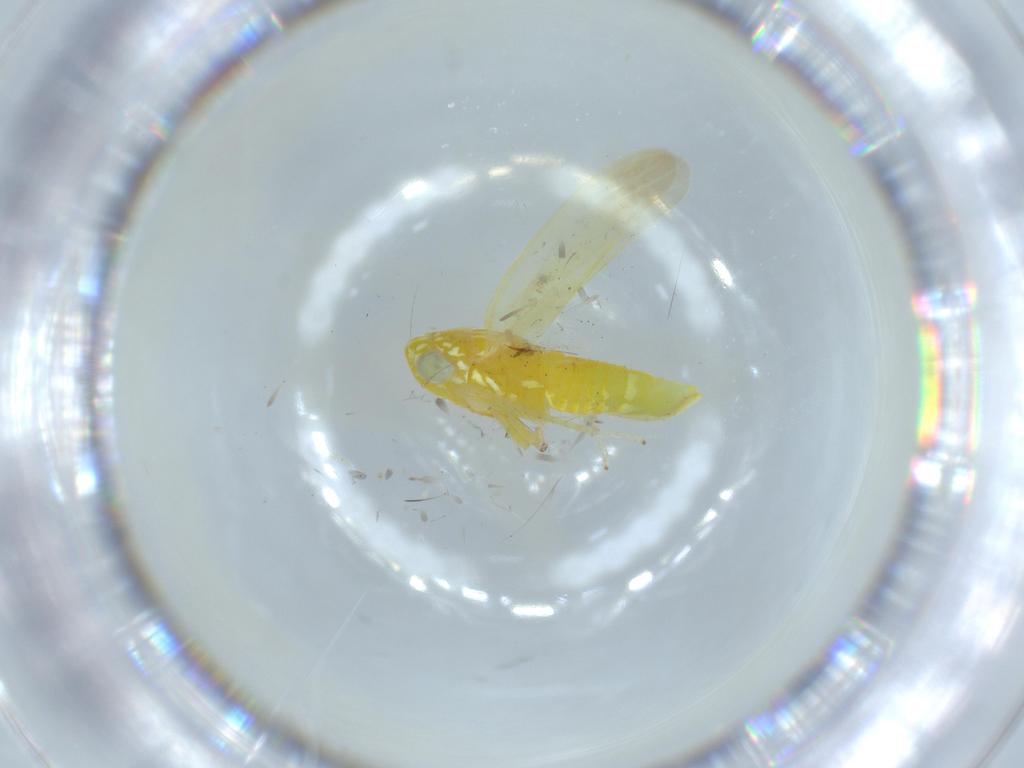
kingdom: Animalia
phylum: Arthropoda
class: Insecta
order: Hemiptera
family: Cicadellidae
